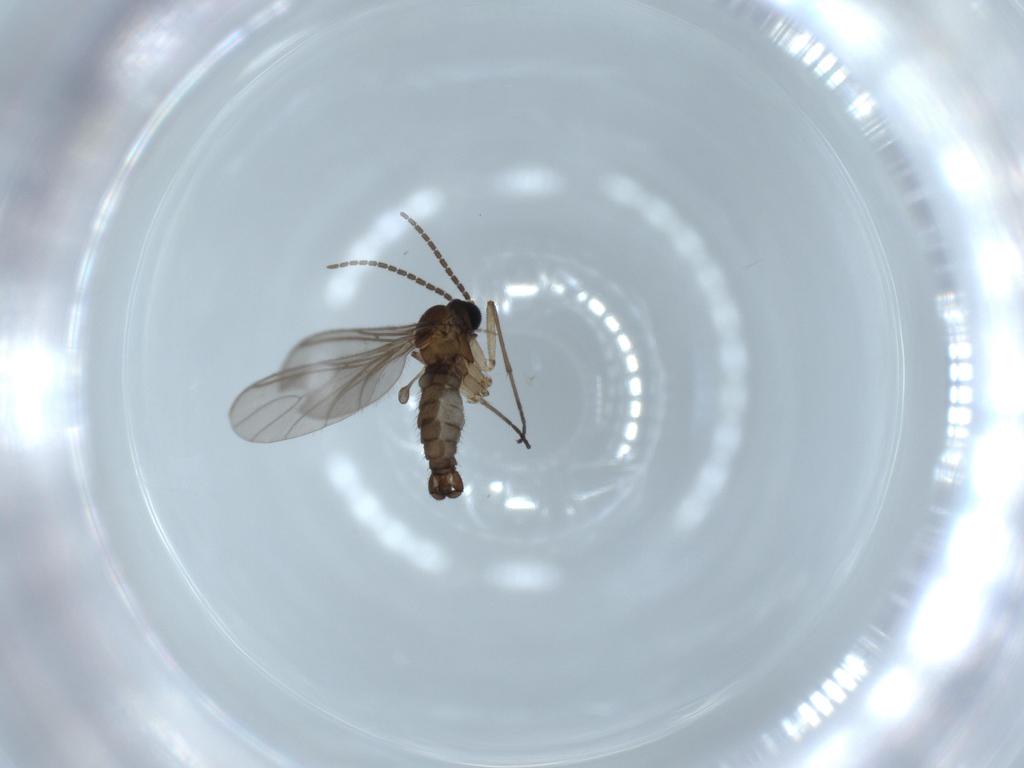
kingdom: Animalia
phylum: Arthropoda
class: Insecta
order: Diptera
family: Sciaridae
